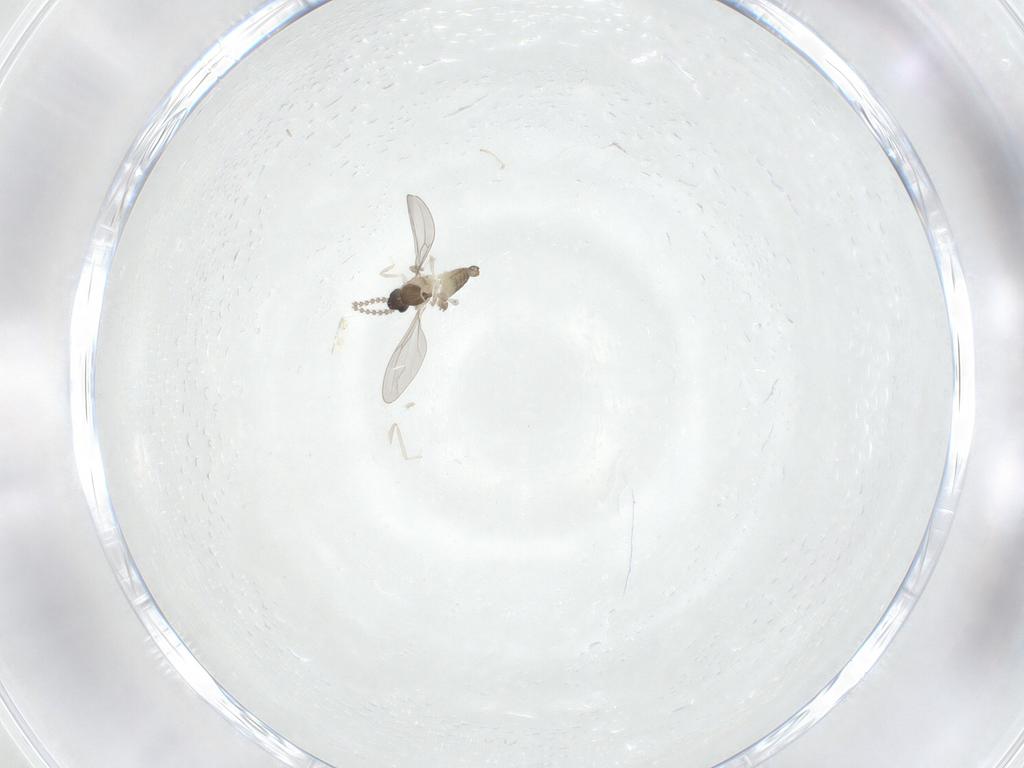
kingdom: Animalia
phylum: Arthropoda
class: Insecta
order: Diptera
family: Cecidomyiidae
